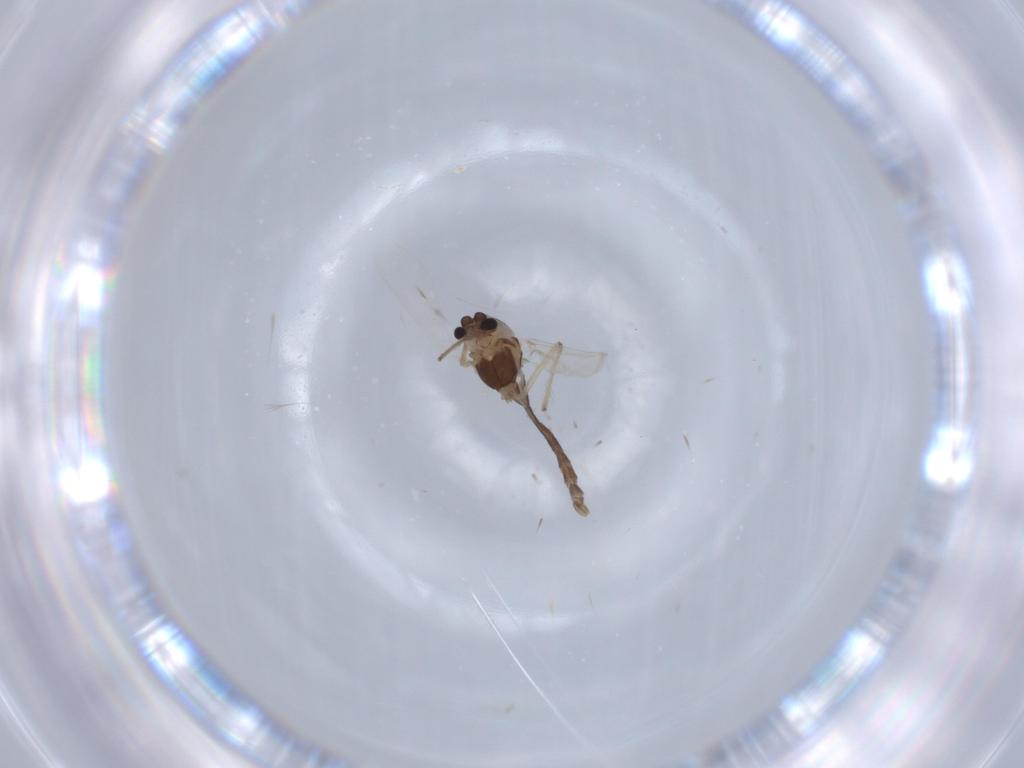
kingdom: Animalia
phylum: Arthropoda
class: Insecta
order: Diptera
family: Chironomidae
